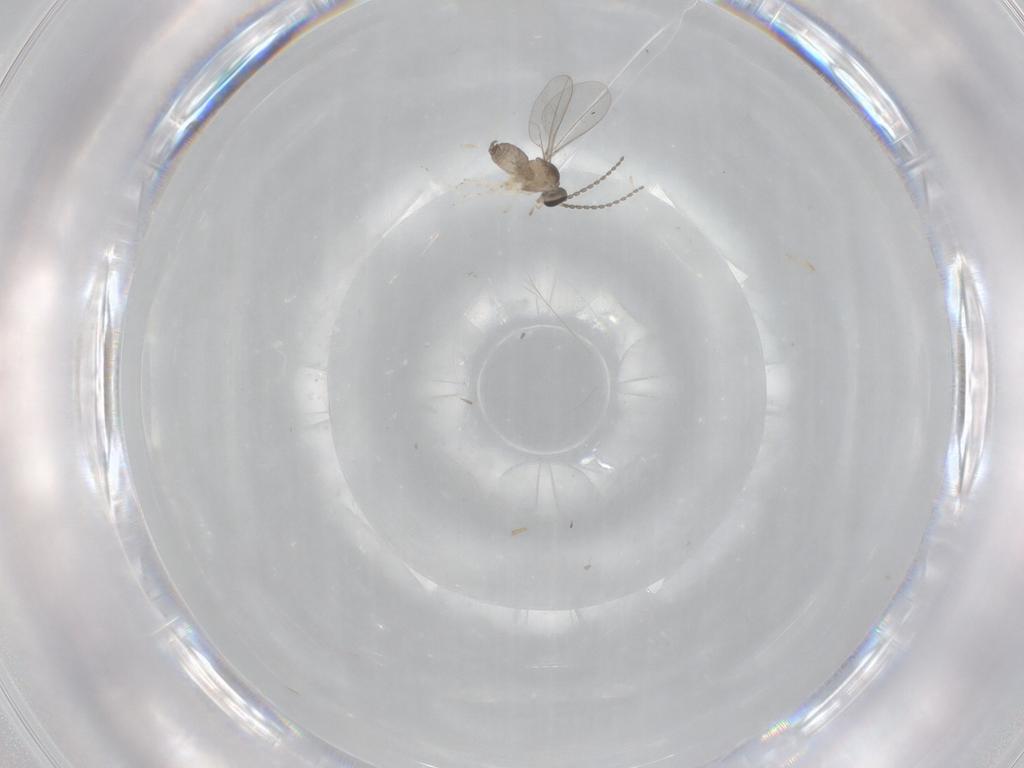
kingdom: Animalia
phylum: Arthropoda
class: Insecta
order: Diptera
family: Cecidomyiidae
